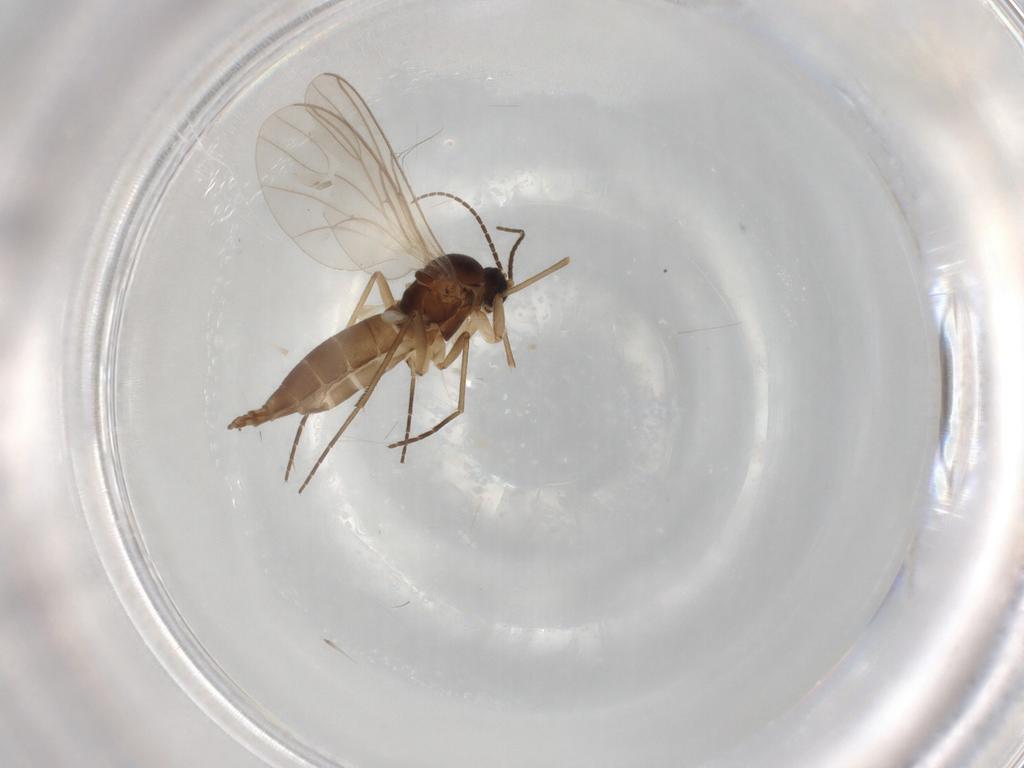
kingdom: Animalia
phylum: Arthropoda
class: Insecta
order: Diptera
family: Sciaridae
